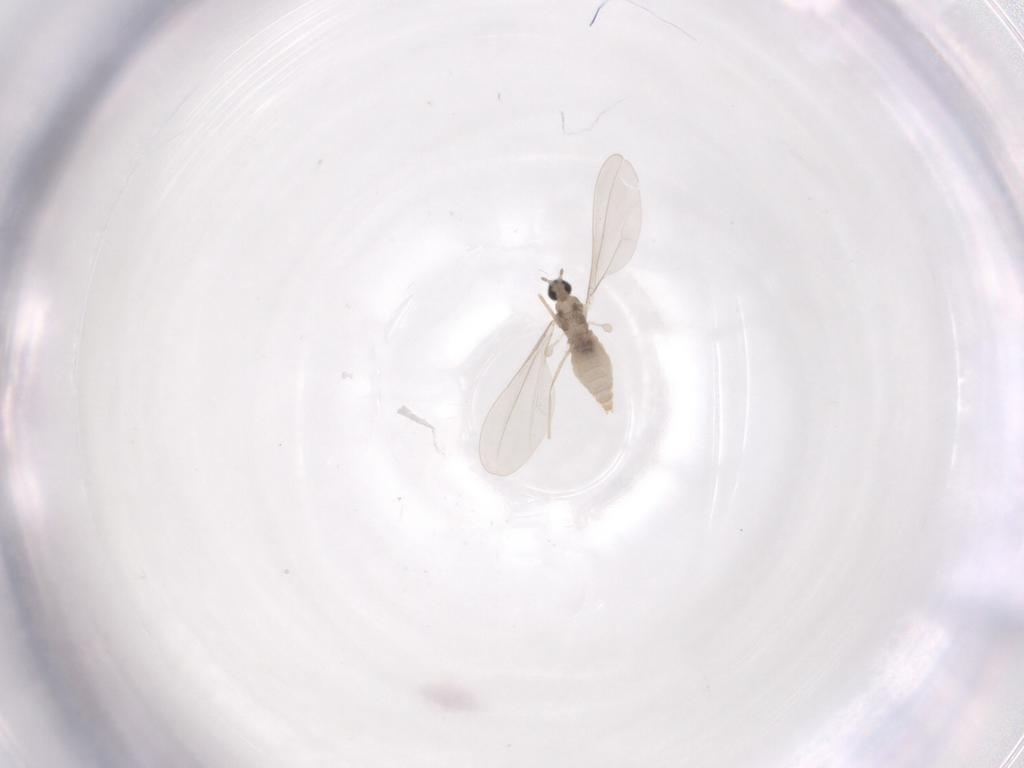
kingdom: Animalia
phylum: Arthropoda
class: Insecta
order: Diptera
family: Cecidomyiidae
